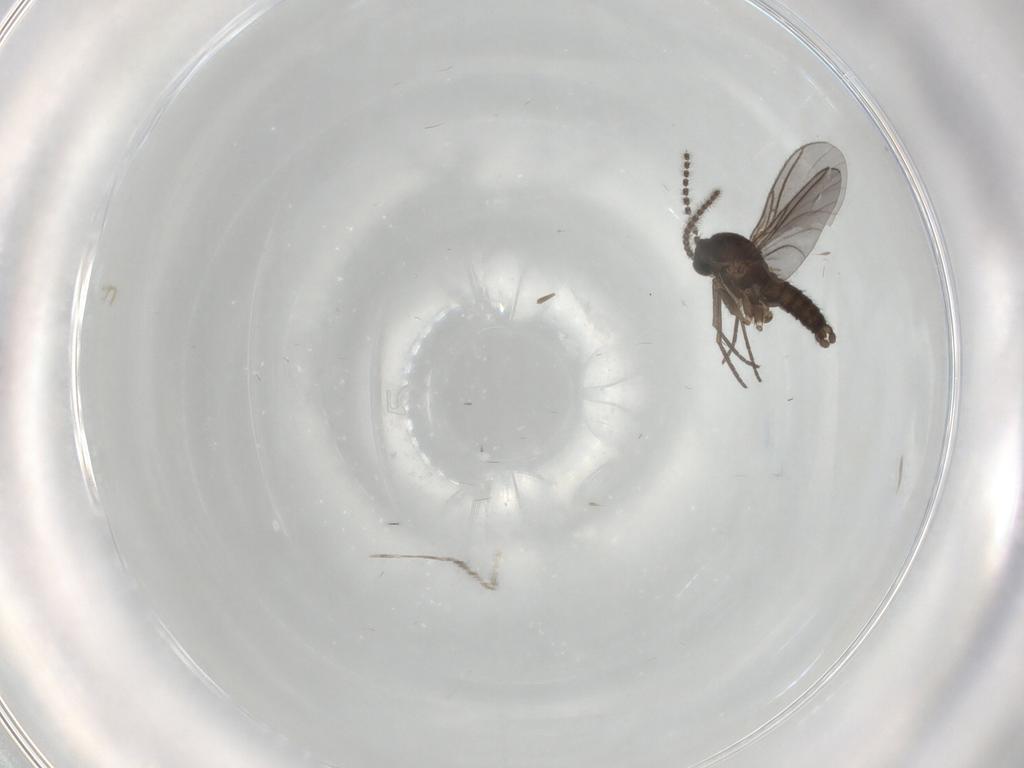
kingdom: Animalia
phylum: Arthropoda
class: Insecta
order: Diptera
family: Sciaridae
